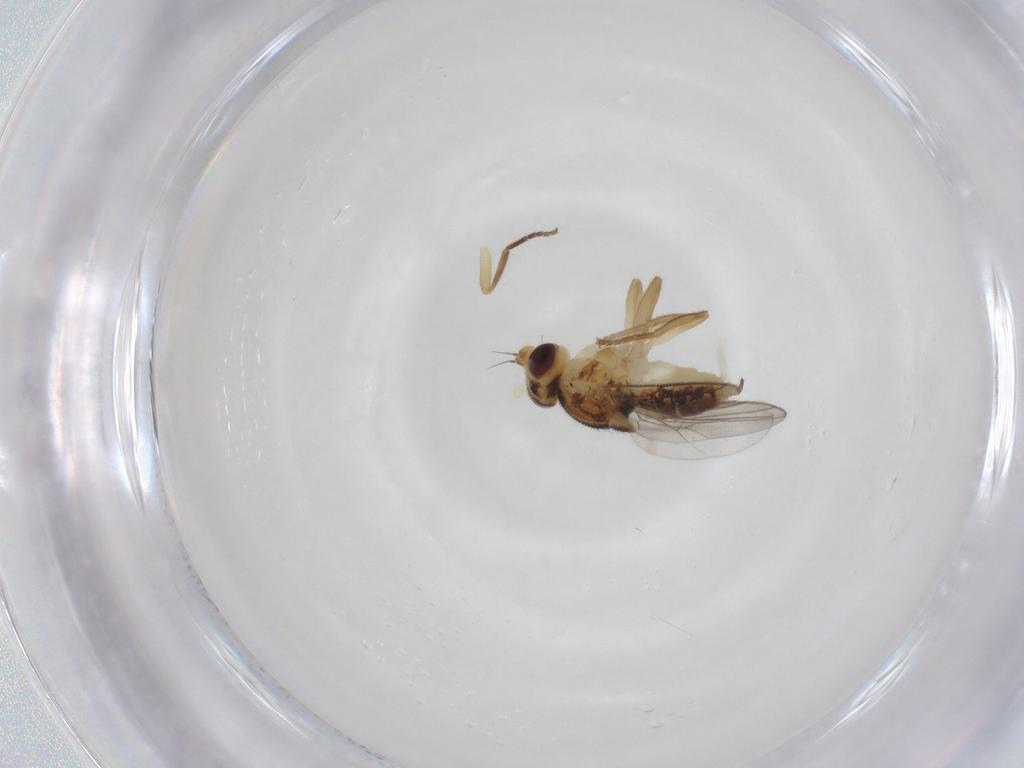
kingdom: Animalia
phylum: Arthropoda
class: Insecta
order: Diptera
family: Chloropidae
